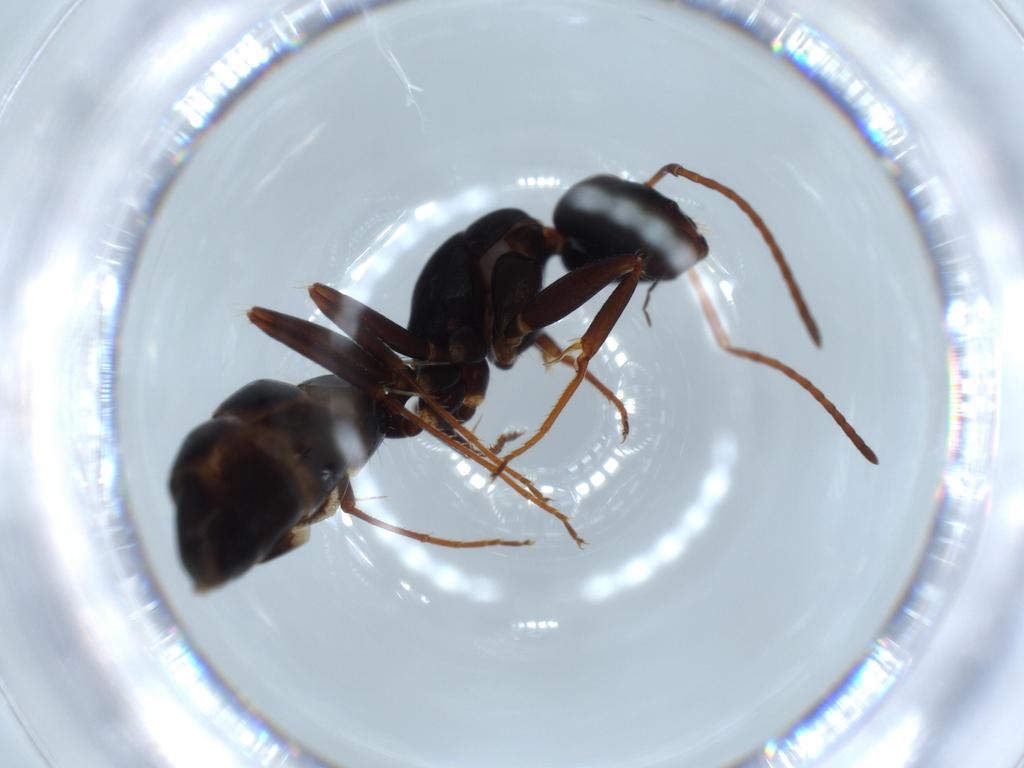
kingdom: Animalia
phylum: Arthropoda
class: Insecta
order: Hymenoptera
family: Formicidae
